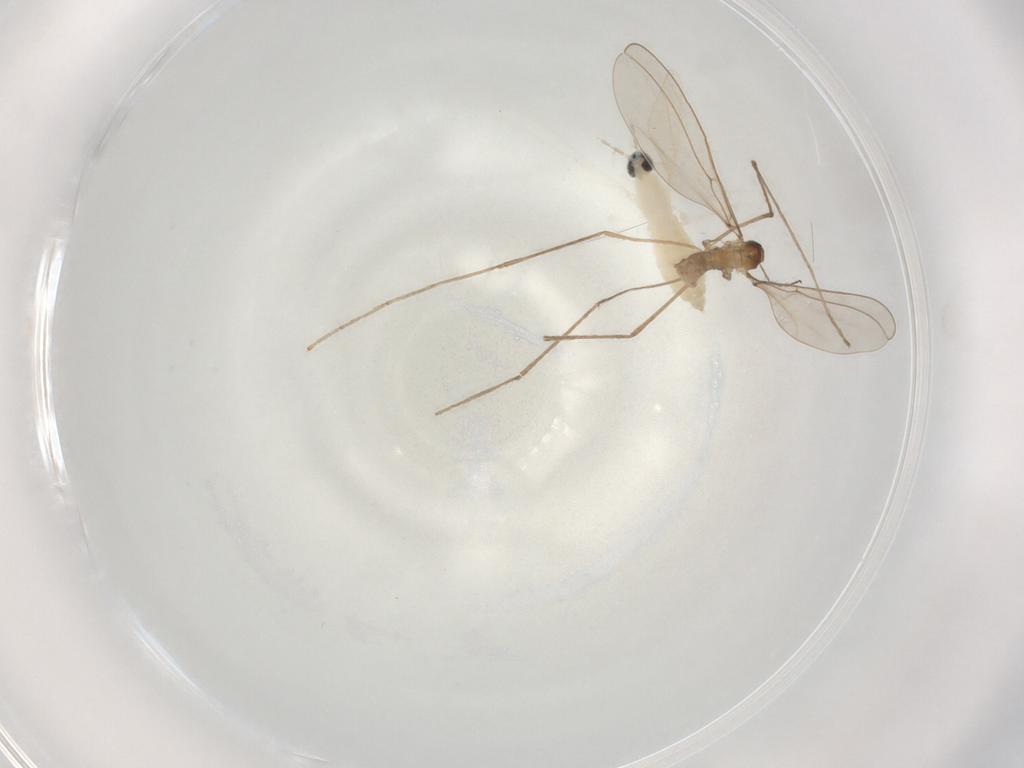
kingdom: Animalia
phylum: Arthropoda
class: Insecta
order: Diptera
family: Cecidomyiidae
